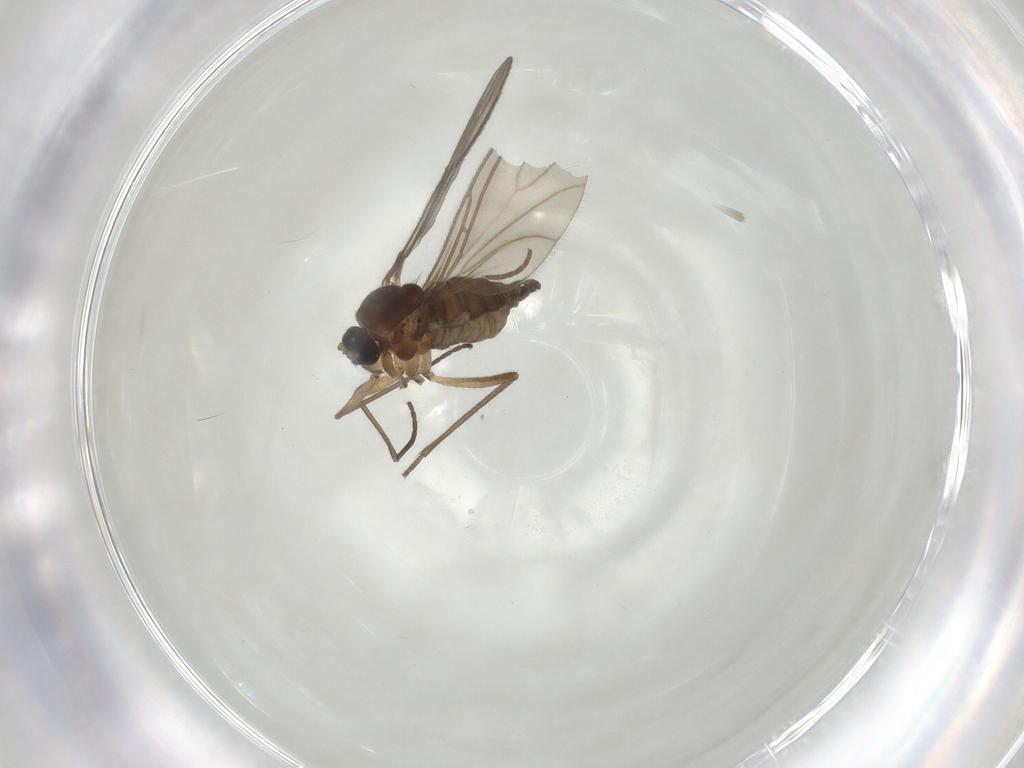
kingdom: Animalia
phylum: Arthropoda
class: Insecta
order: Diptera
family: Sciaridae
